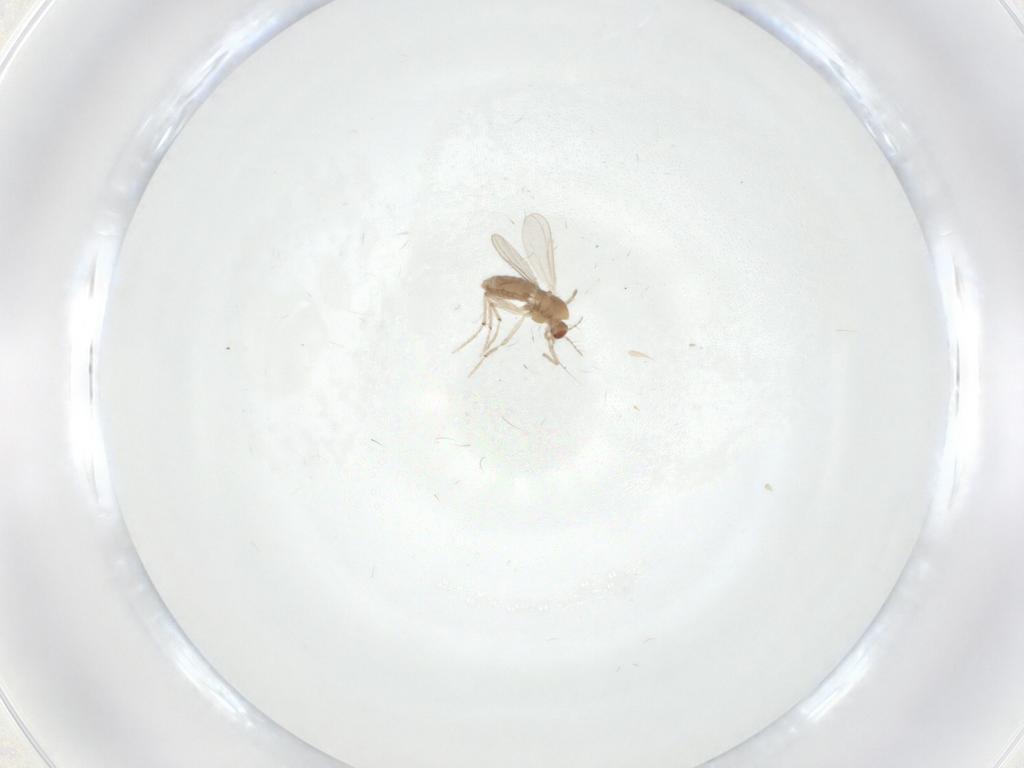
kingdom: Animalia
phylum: Arthropoda
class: Insecta
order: Diptera
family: Chironomidae
